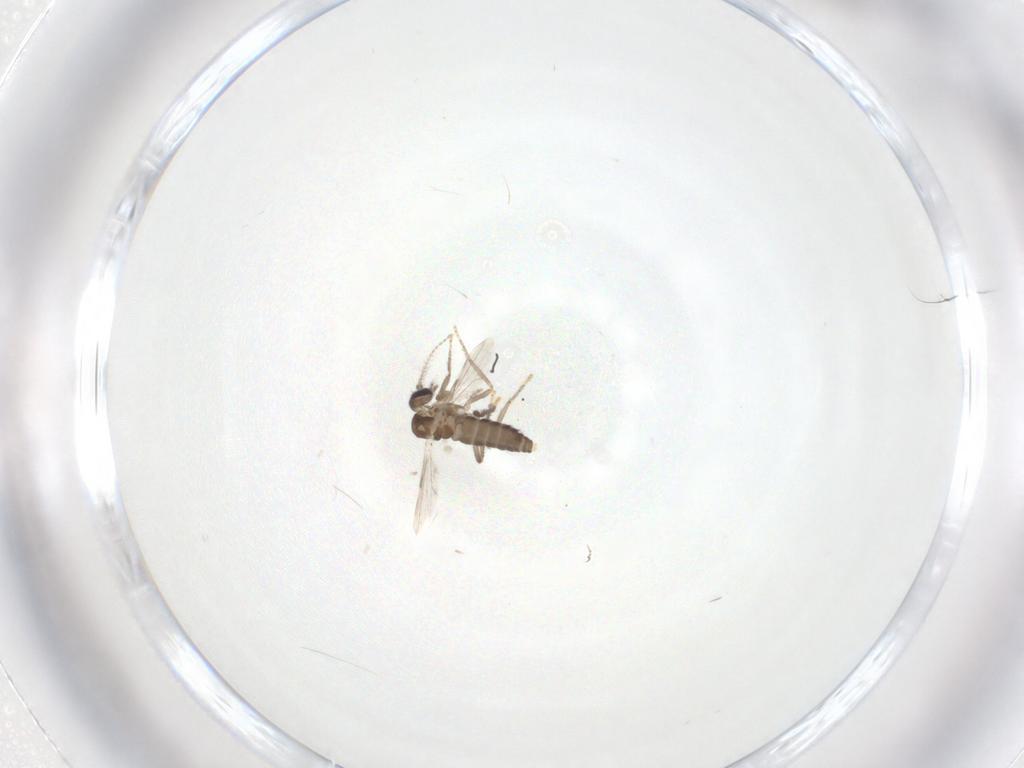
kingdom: Animalia
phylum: Arthropoda
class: Insecta
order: Diptera
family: Ceratopogonidae
